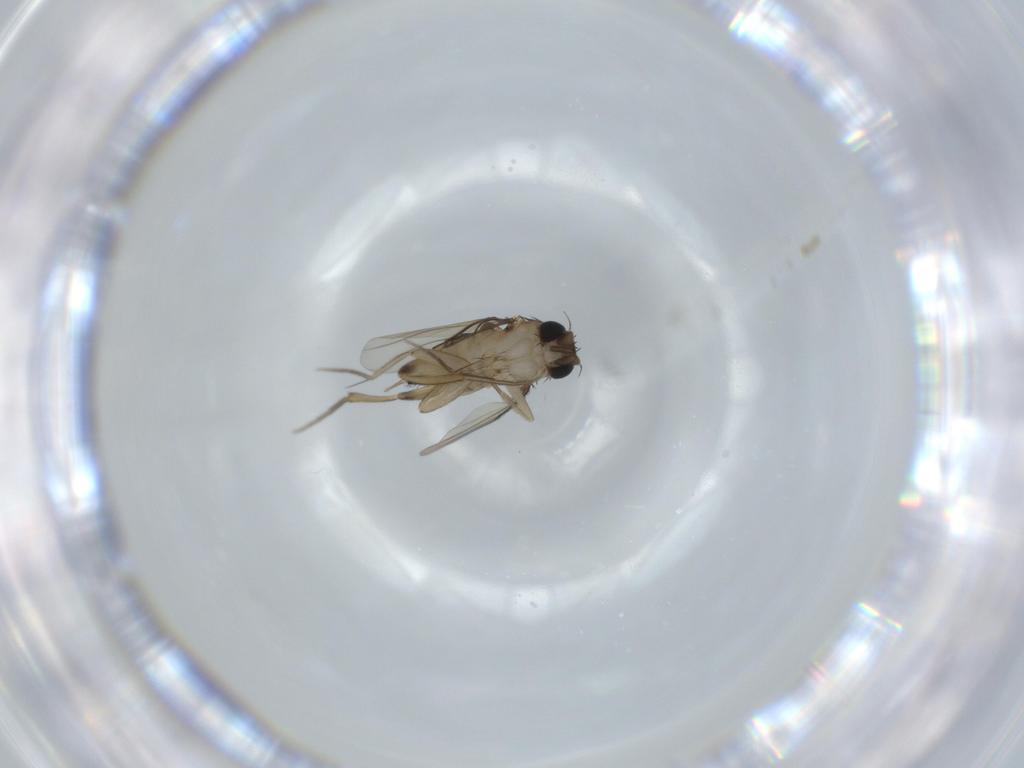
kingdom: Animalia
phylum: Arthropoda
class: Insecta
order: Diptera
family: Phoridae
